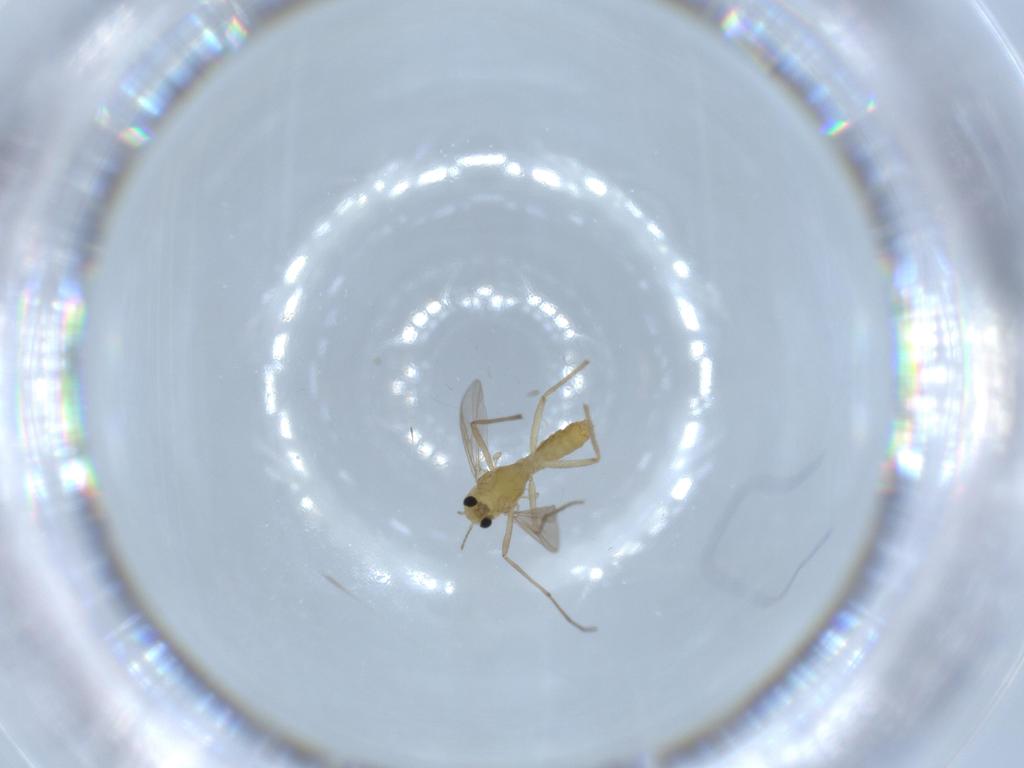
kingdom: Animalia
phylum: Arthropoda
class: Insecta
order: Diptera
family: Chironomidae
